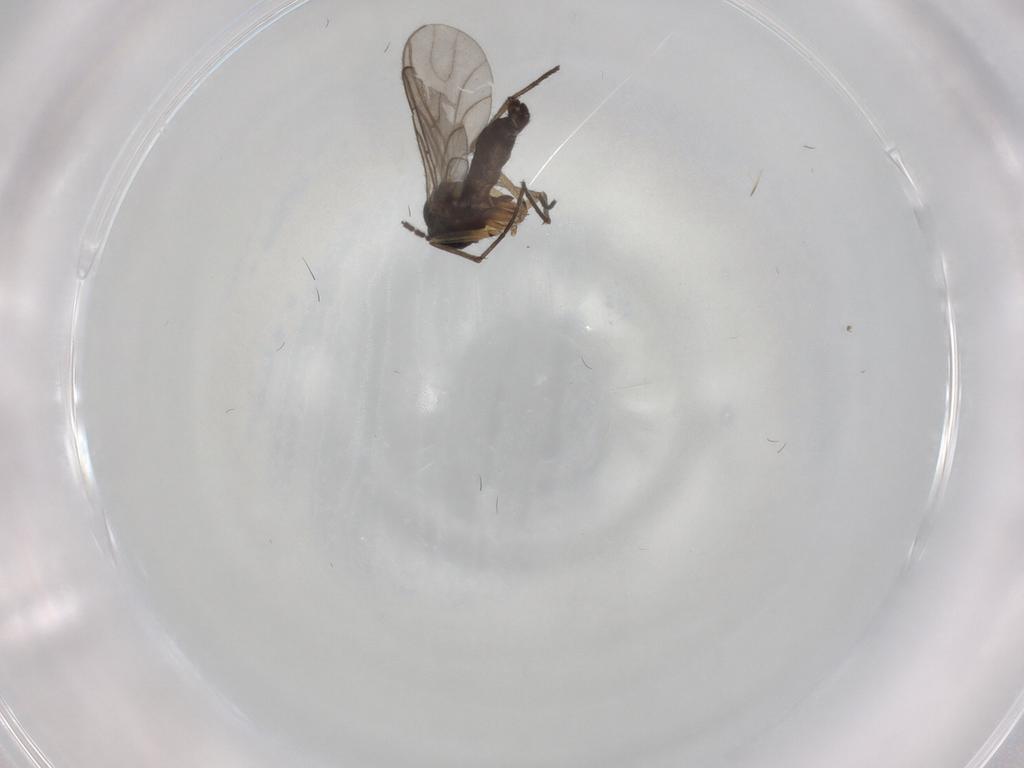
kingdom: Animalia
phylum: Arthropoda
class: Insecta
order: Diptera
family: Sciaridae
